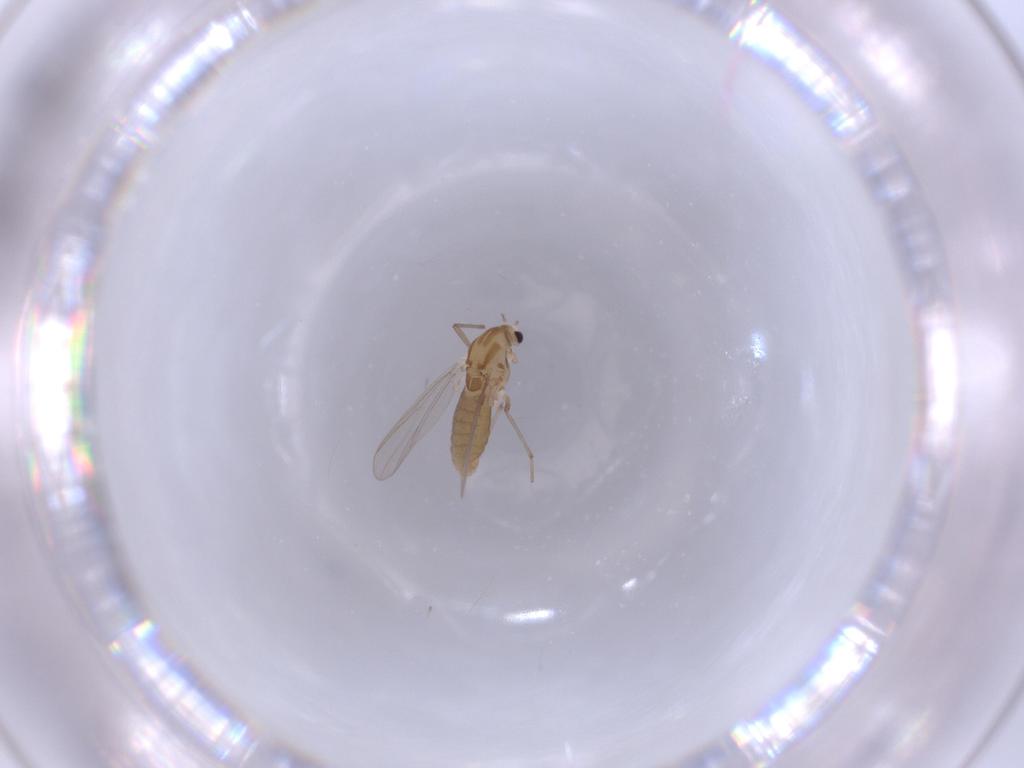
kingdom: Animalia
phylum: Arthropoda
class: Insecta
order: Diptera
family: Chironomidae
